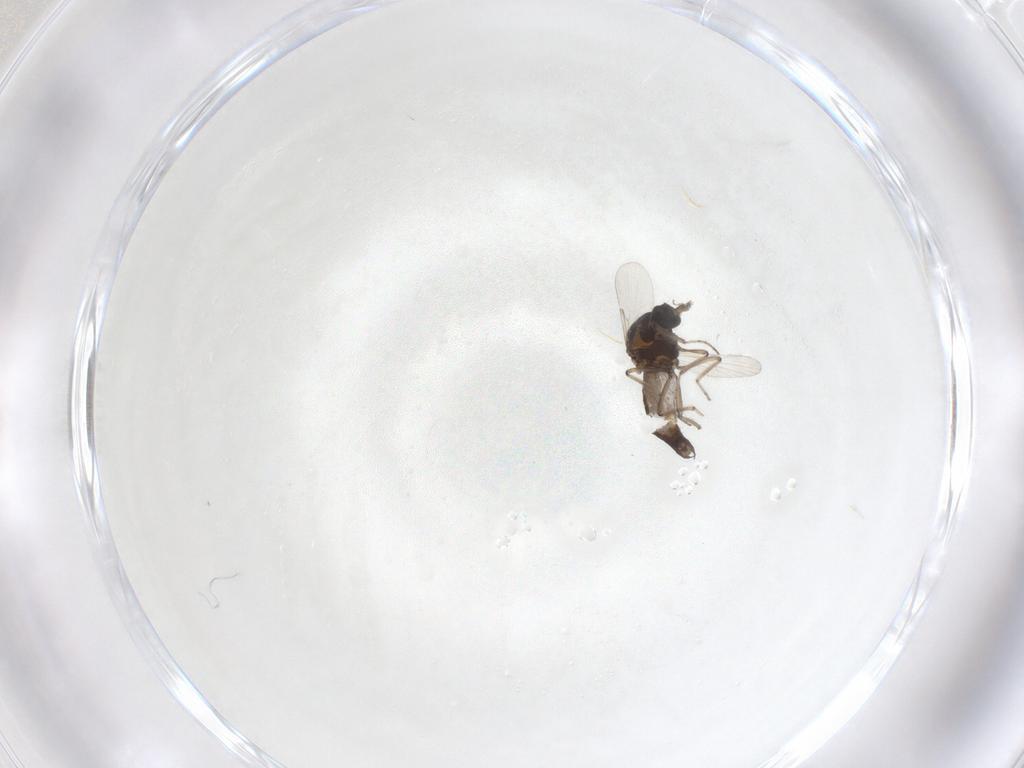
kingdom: Animalia
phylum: Arthropoda
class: Insecta
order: Diptera
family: Ceratopogonidae
